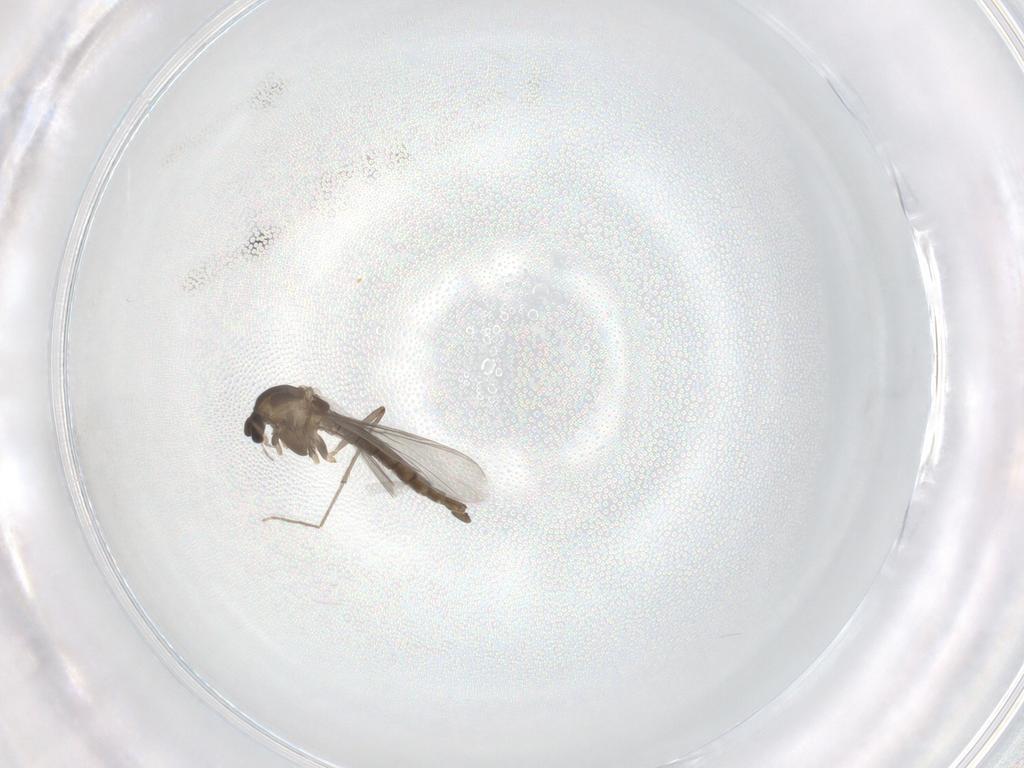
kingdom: Animalia
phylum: Arthropoda
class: Insecta
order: Diptera
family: Chironomidae
